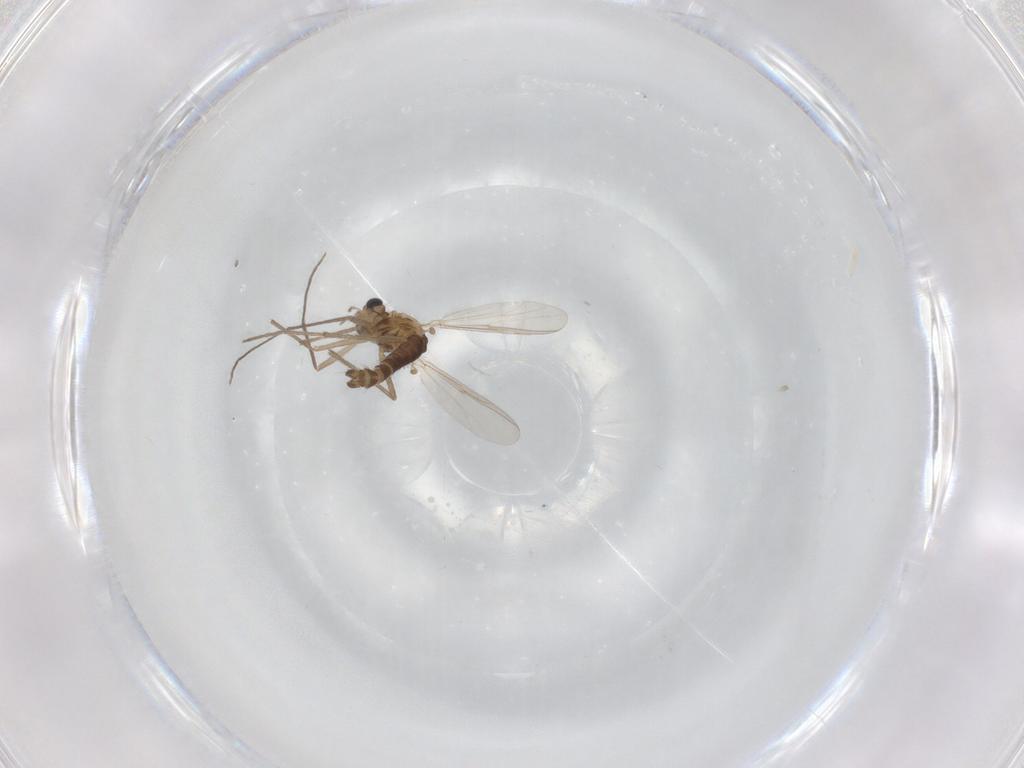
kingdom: Animalia
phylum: Arthropoda
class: Insecta
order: Diptera
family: Chironomidae
